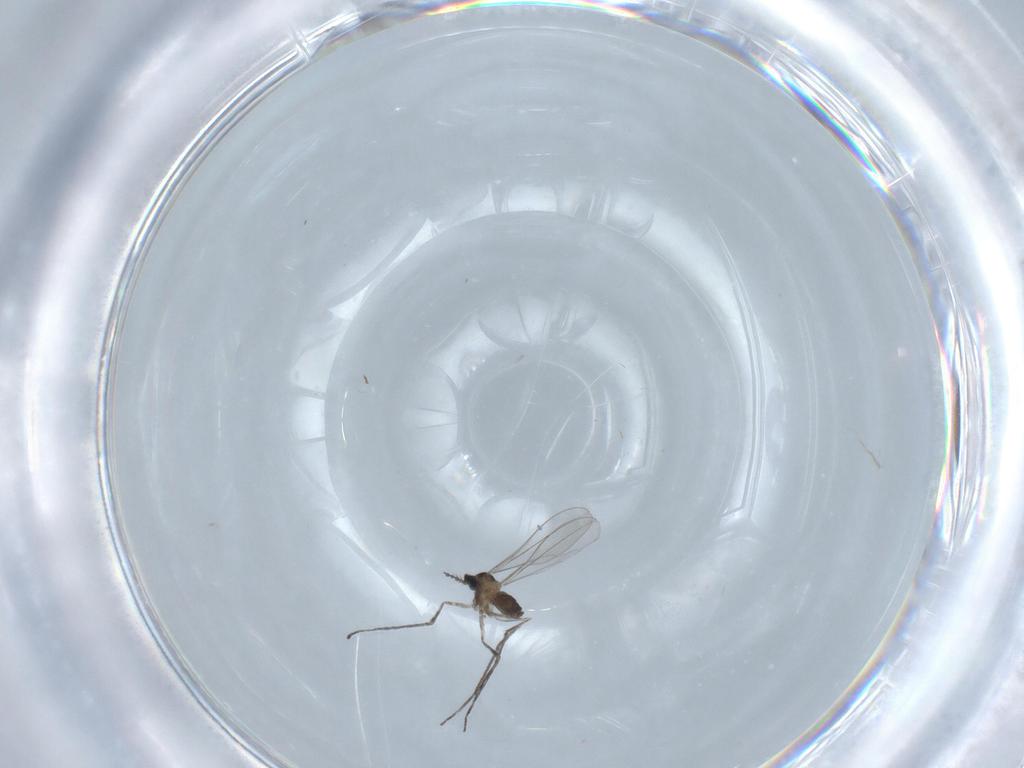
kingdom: Animalia
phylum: Arthropoda
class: Insecta
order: Diptera
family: Cecidomyiidae
